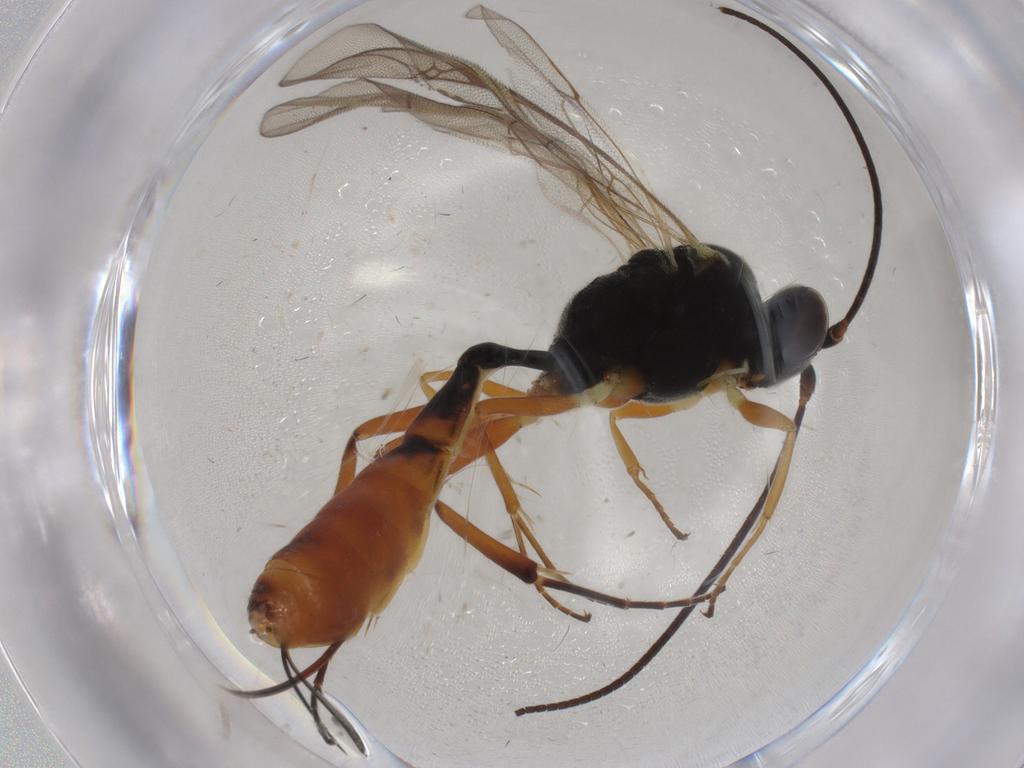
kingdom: Animalia
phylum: Arthropoda
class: Insecta
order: Hymenoptera
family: Ichneumonidae
